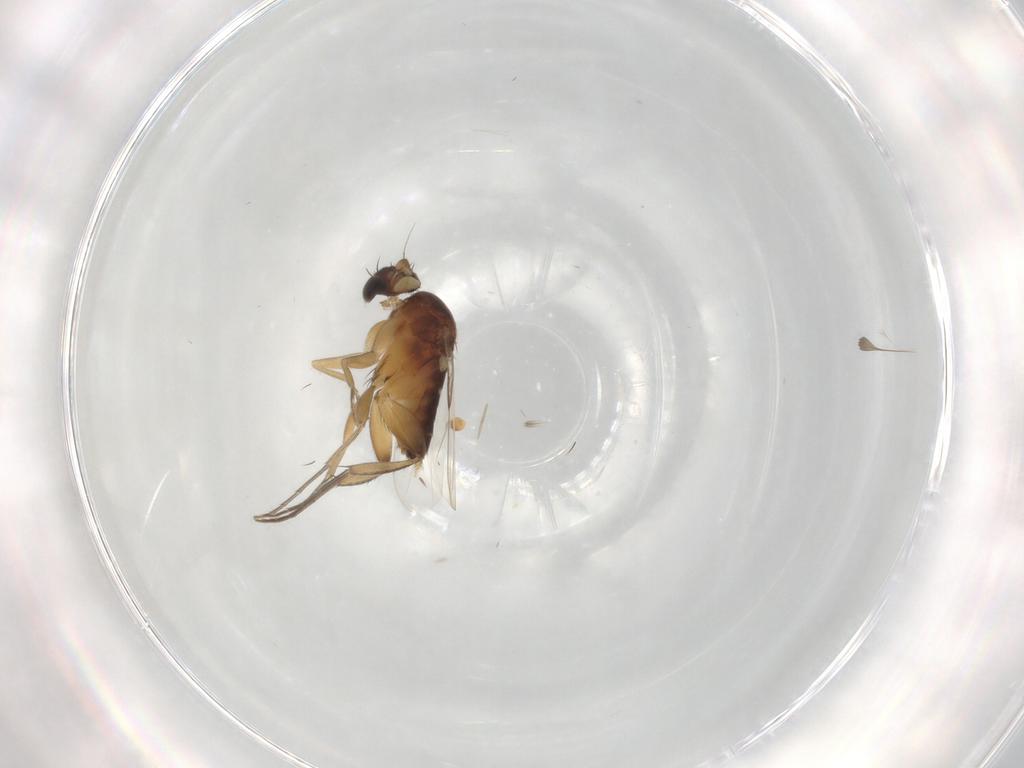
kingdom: Animalia
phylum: Arthropoda
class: Insecta
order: Diptera
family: Phoridae
